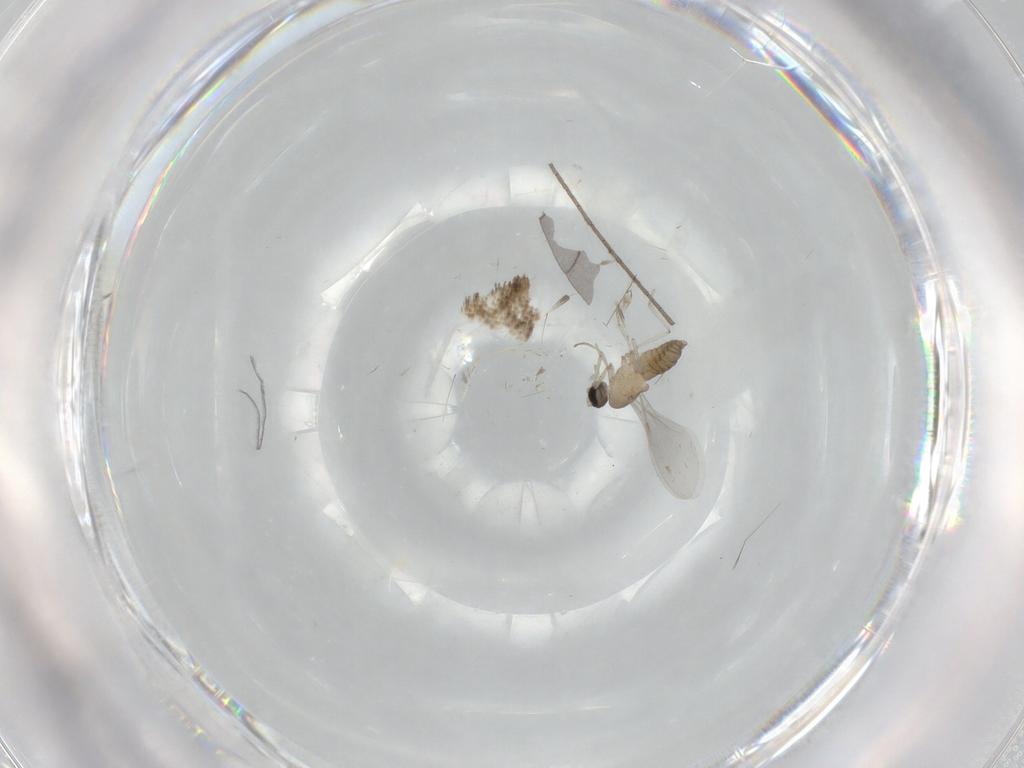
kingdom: Animalia
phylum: Arthropoda
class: Insecta
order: Diptera
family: Cecidomyiidae
